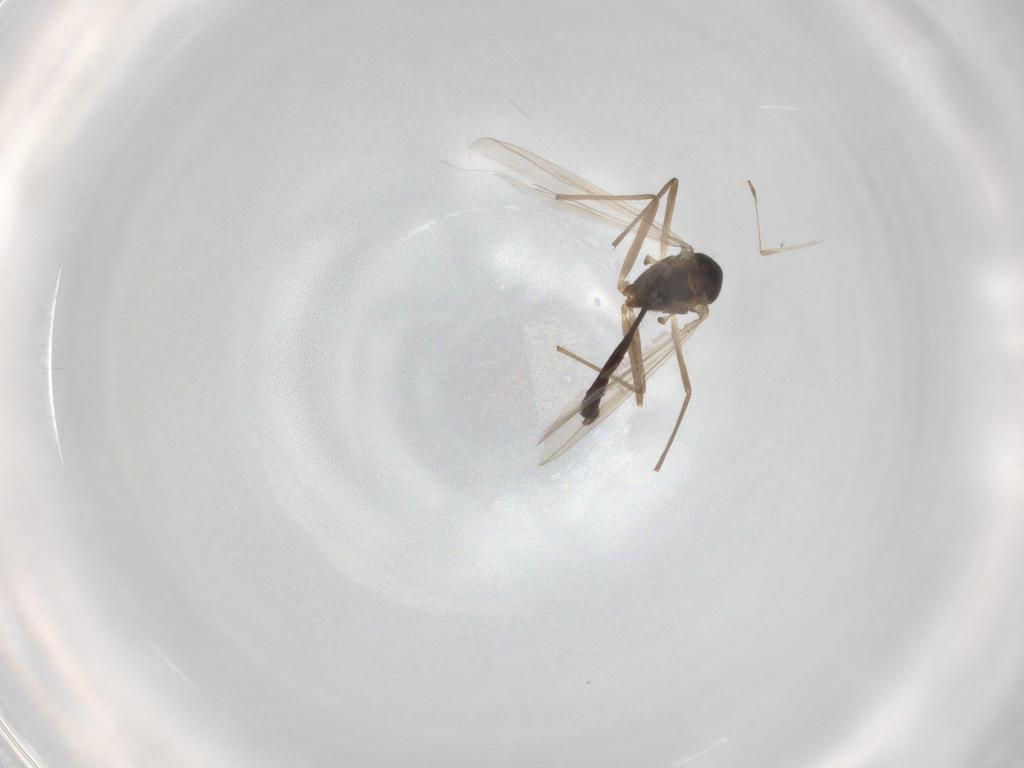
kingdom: Animalia
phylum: Arthropoda
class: Insecta
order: Diptera
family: Chironomidae
